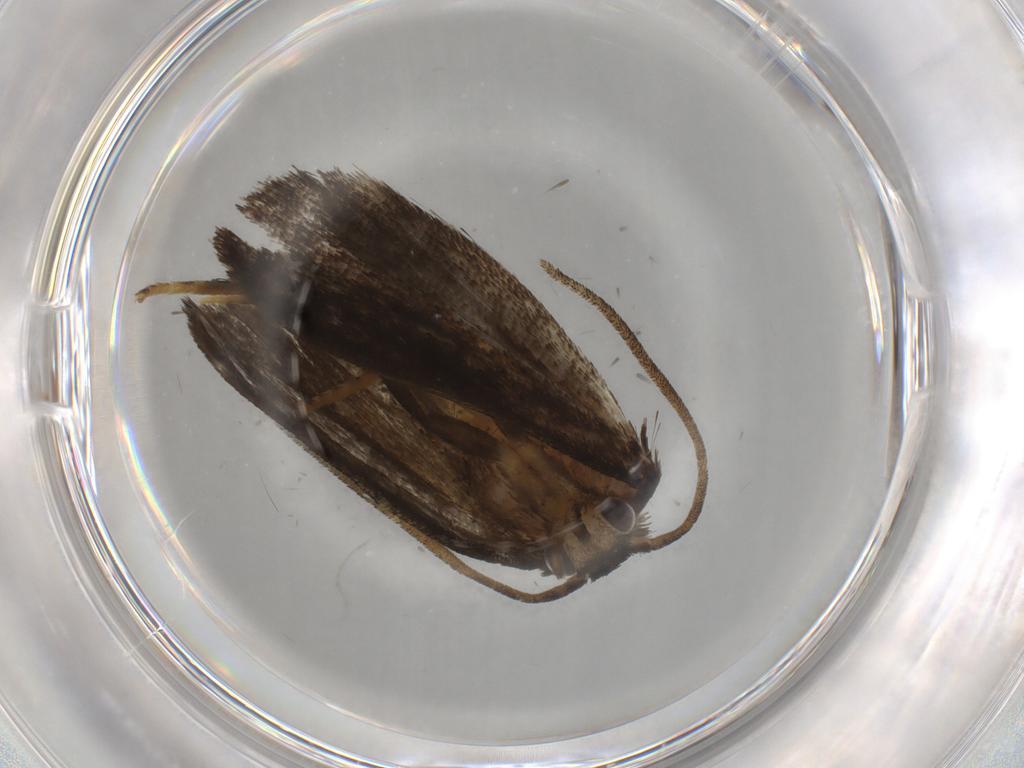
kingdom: Animalia
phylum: Arthropoda
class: Insecta
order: Lepidoptera
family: Limacodidae
